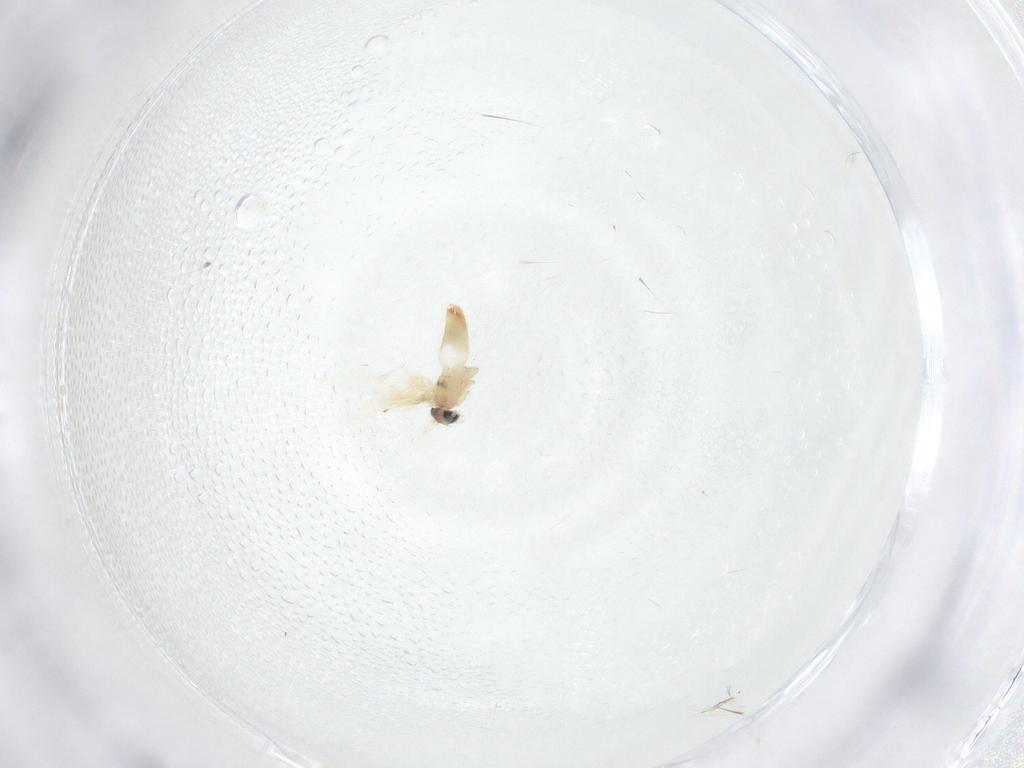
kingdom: Animalia
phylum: Arthropoda
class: Insecta
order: Lepidoptera
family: Crambidae
